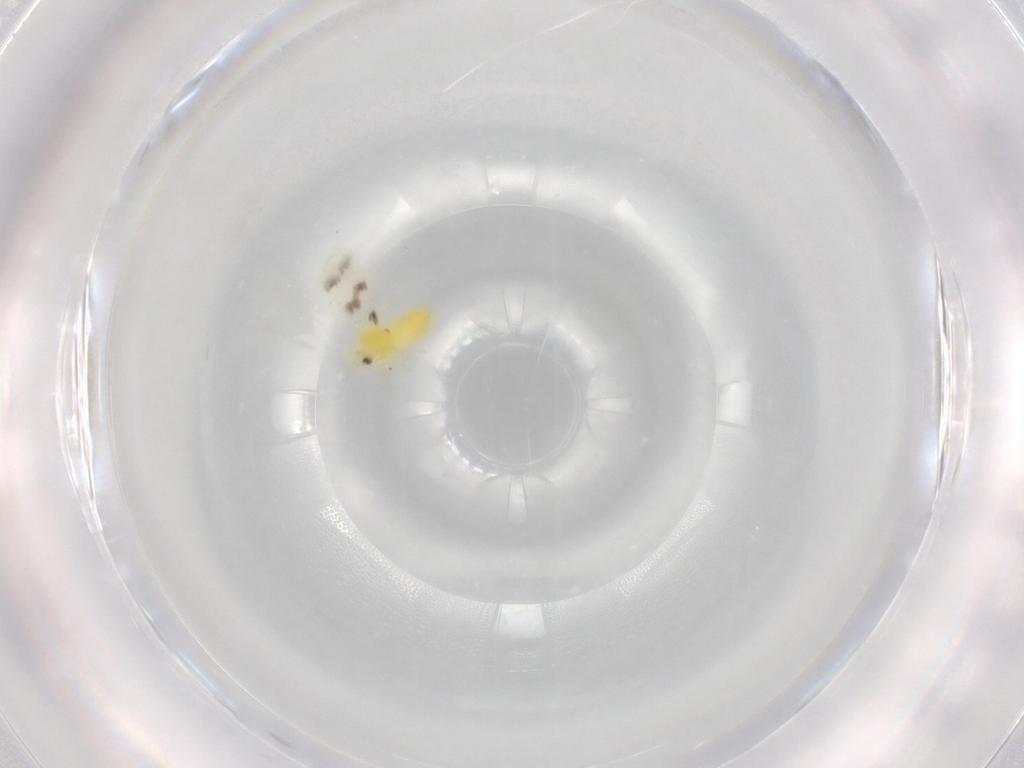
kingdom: Animalia
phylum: Arthropoda
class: Insecta
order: Hemiptera
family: Aleyrodidae
